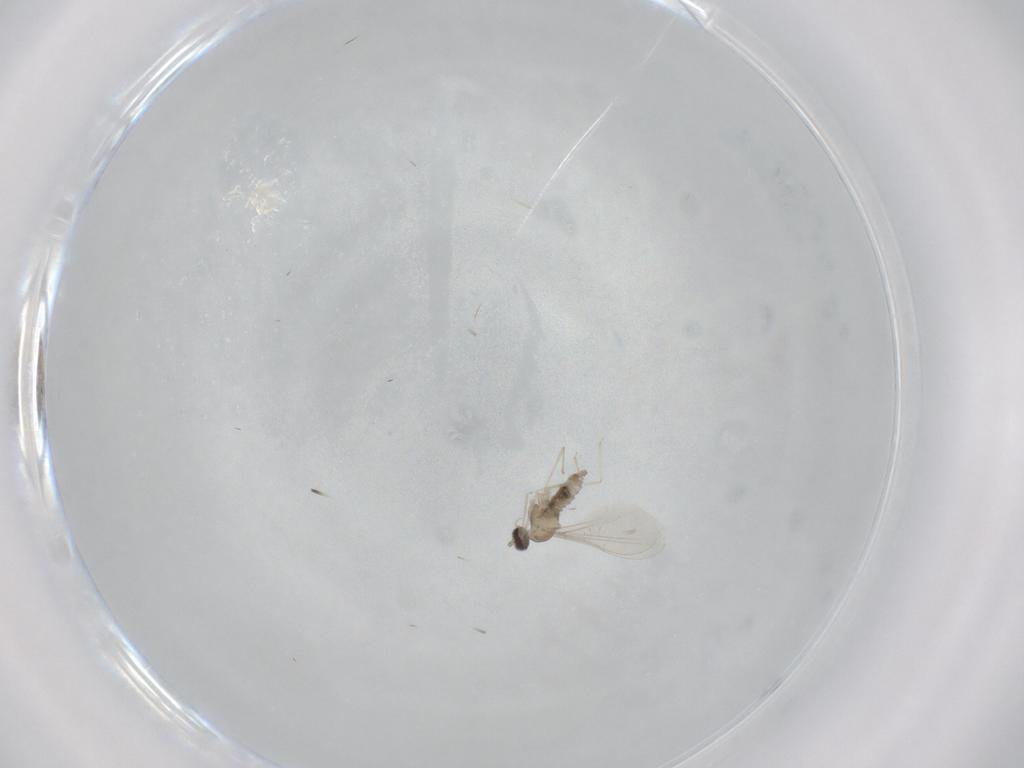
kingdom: Animalia
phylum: Arthropoda
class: Insecta
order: Diptera
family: Cecidomyiidae
